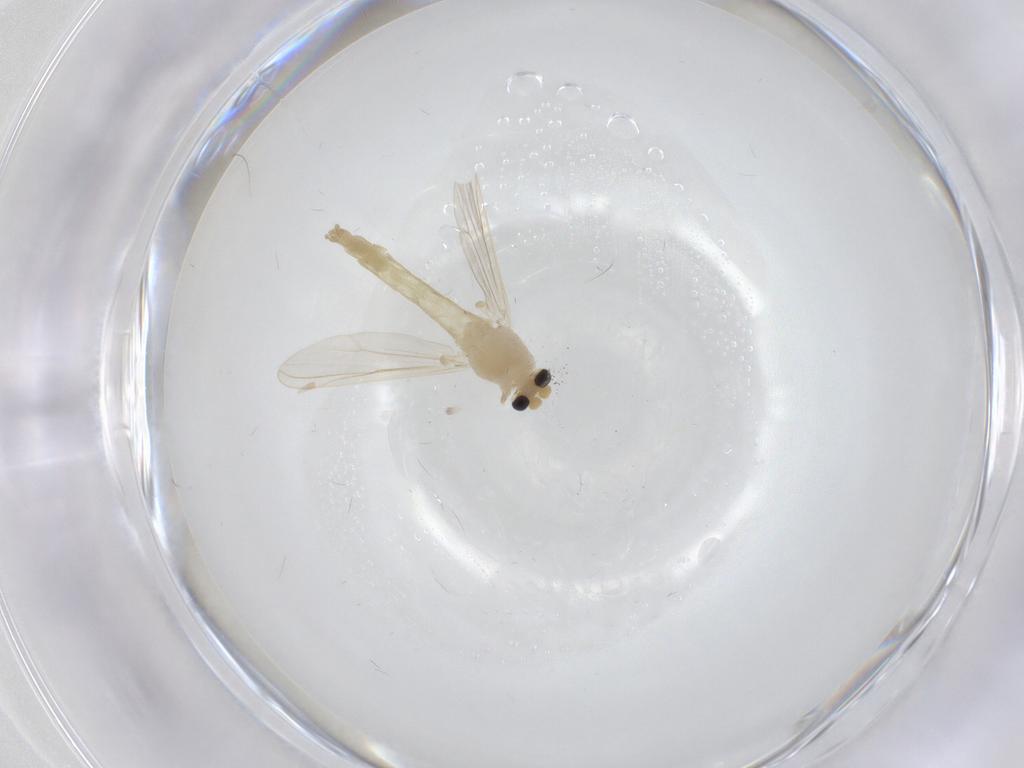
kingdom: Animalia
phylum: Arthropoda
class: Insecta
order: Diptera
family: Chironomidae
